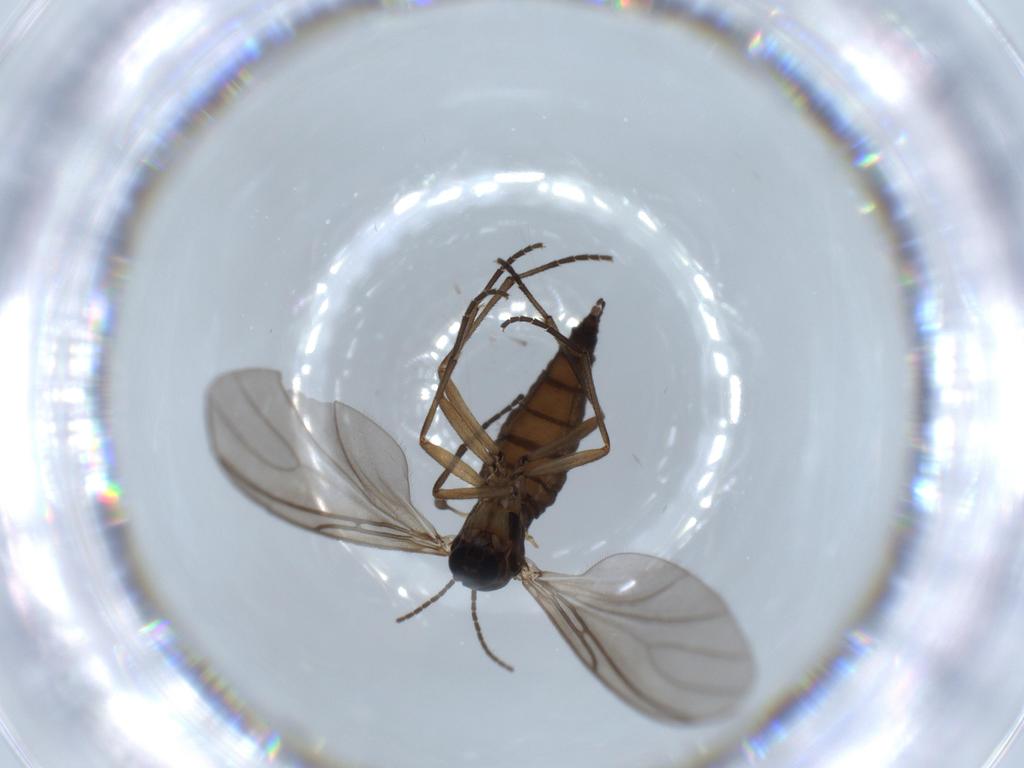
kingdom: Animalia
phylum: Arthropoda
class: Insecta
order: Diptera
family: Sciaridae
